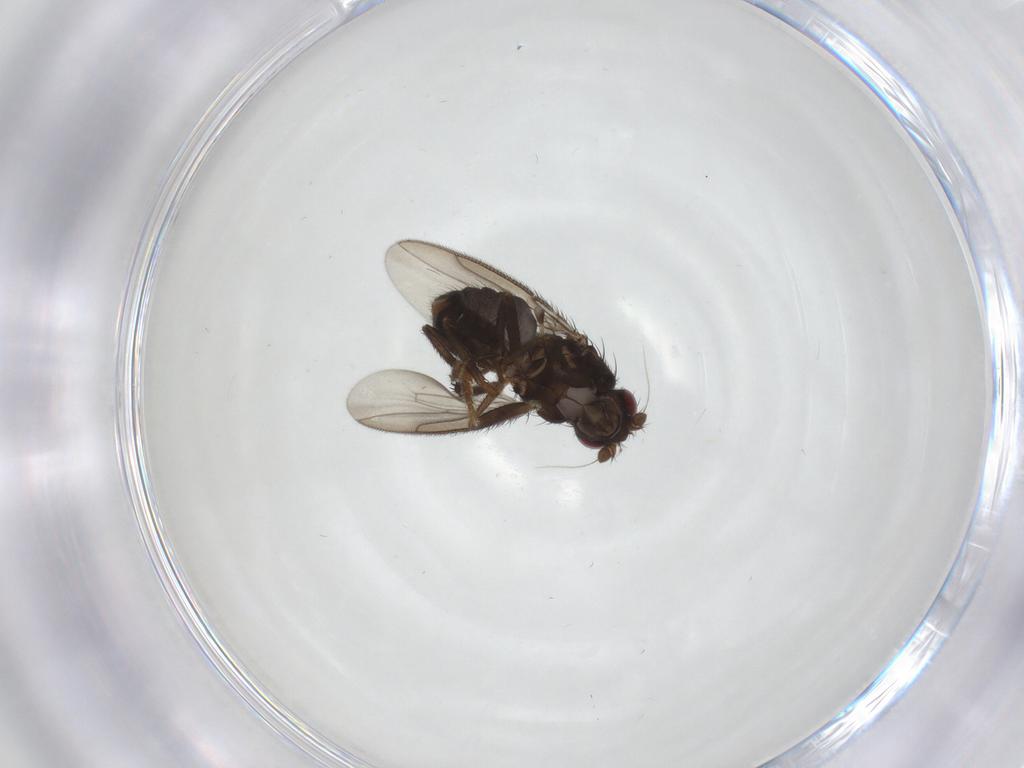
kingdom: Animalia
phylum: Arthropoda
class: Insecta
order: Diptera
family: Sphaeroceridae
